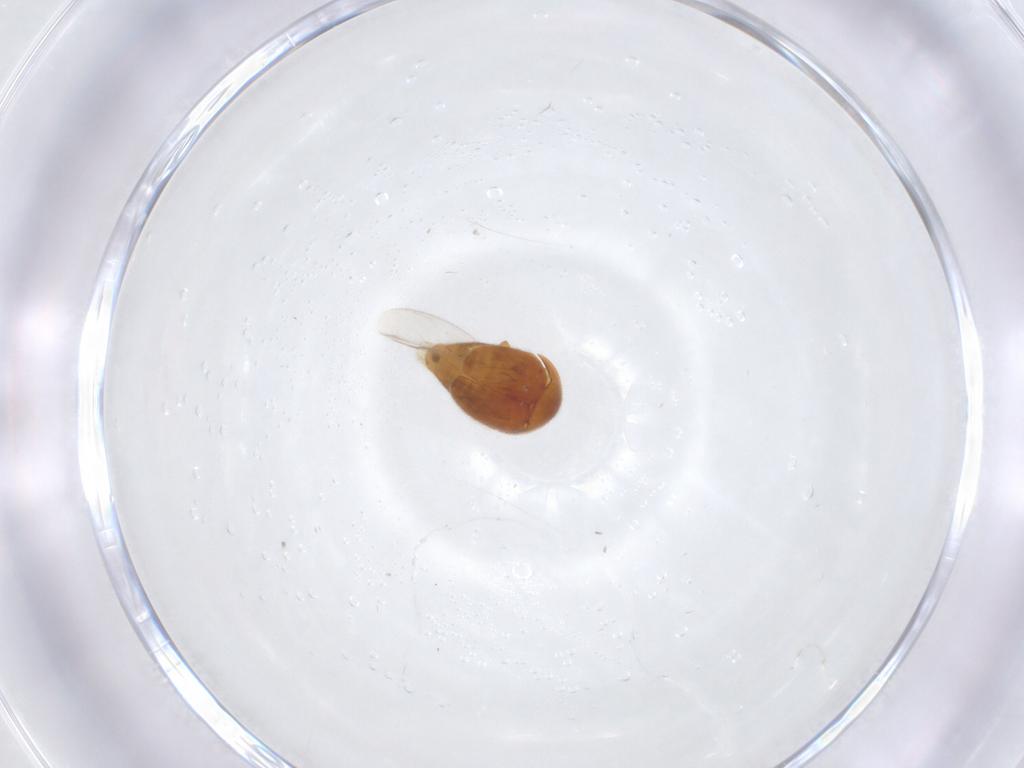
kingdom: Animalia
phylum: Arthropoda
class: Insecta
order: Coleoptera
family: Corylophidae
